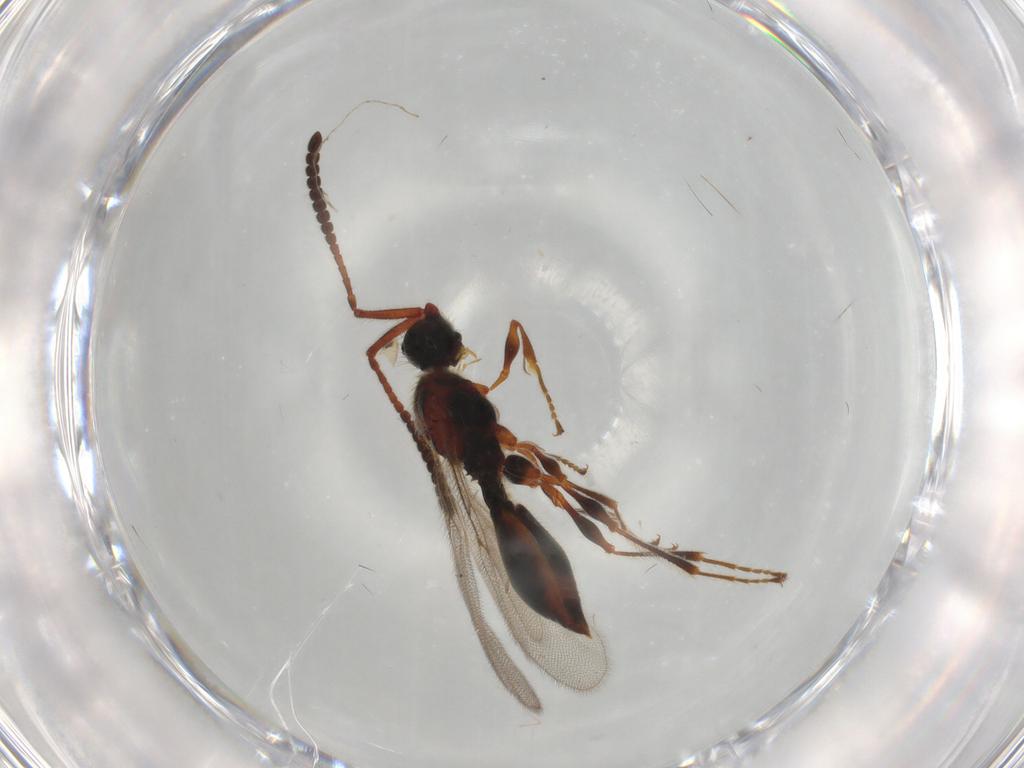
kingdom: Animalia
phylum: Arthropoda
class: Insecta
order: Hymenoptera
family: Diapriidae
